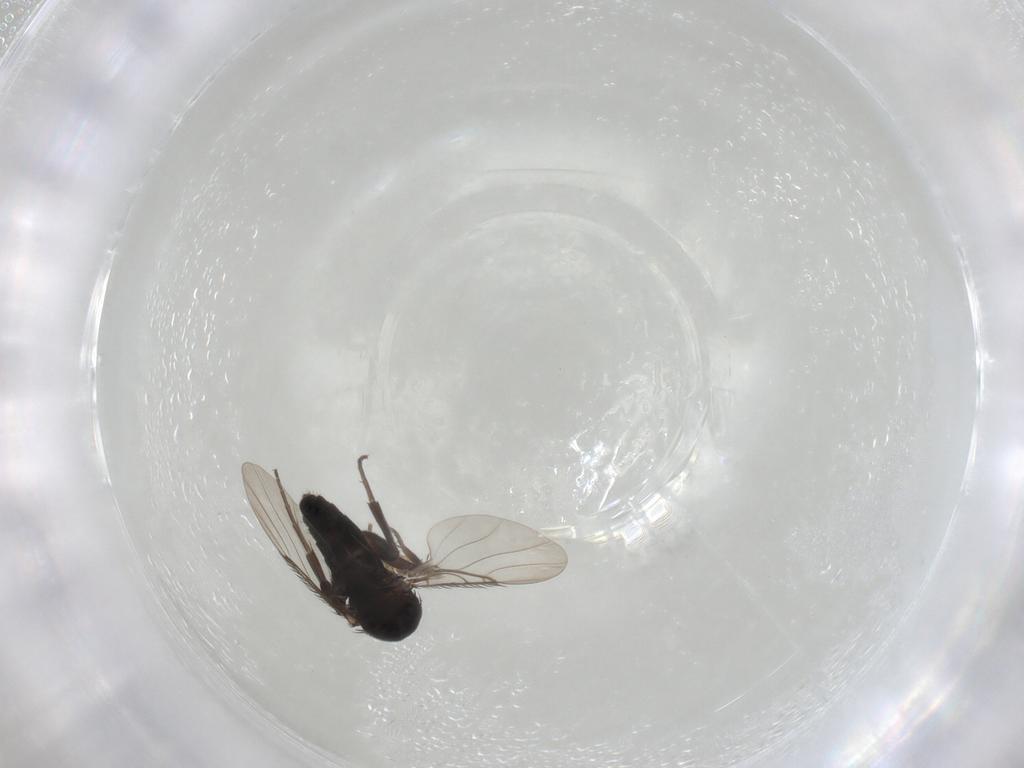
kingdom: Animalia
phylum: Arthropoda
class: Insecta
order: Diptera
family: Phoridae
